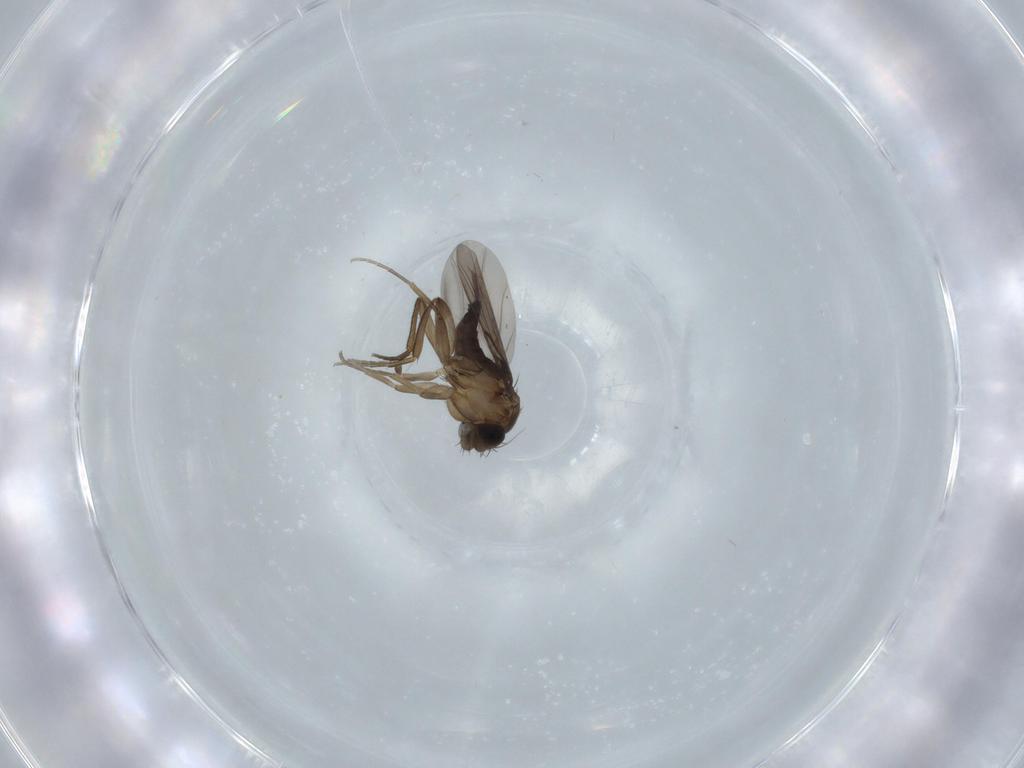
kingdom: Animalia
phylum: Arthropoda
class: Insecta
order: Diptera
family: Phoridae
